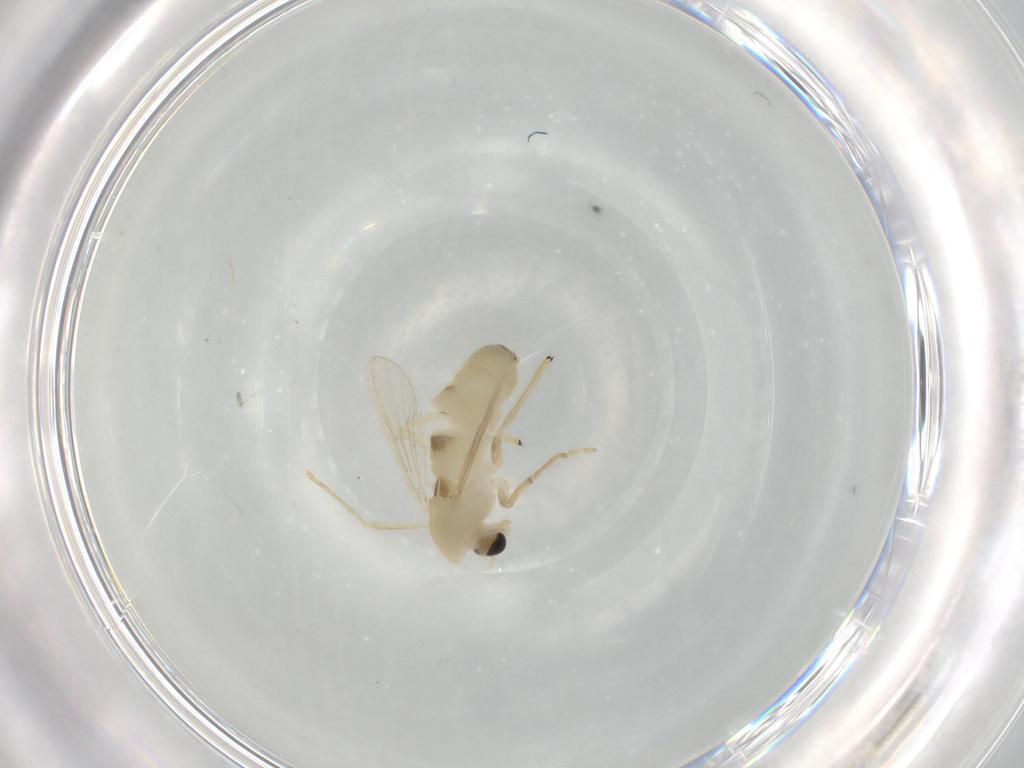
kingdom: Animalia
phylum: Arthropoda
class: Insecta
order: Diptera
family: Chironomidae
